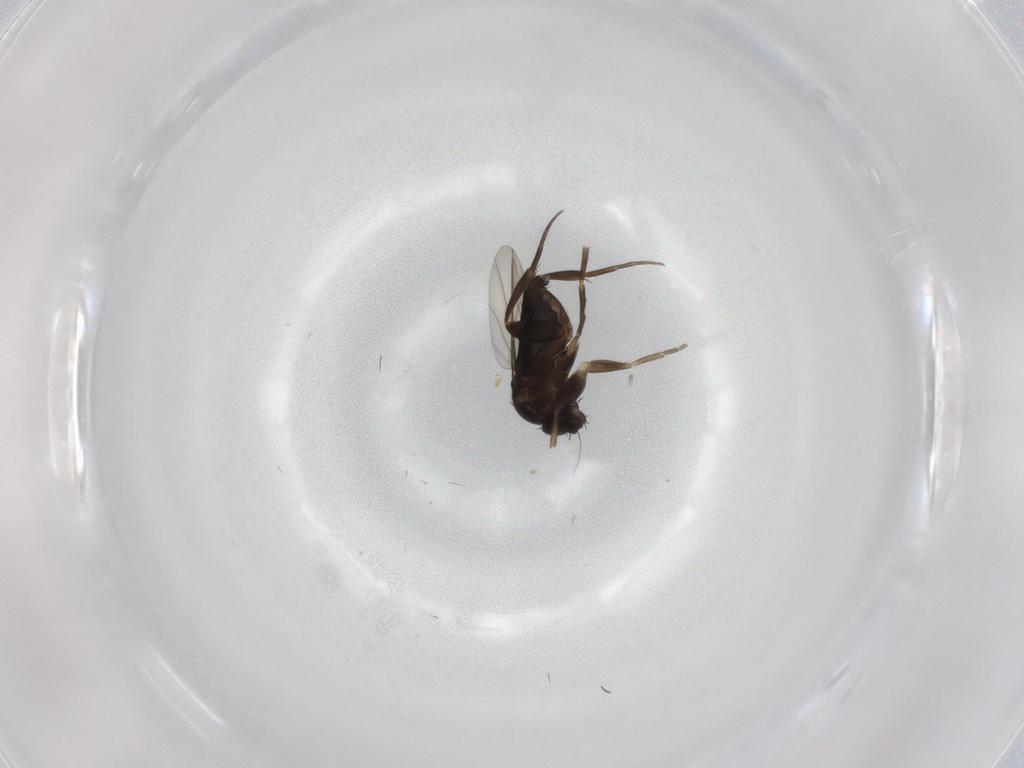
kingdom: Animalia
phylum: Arthropoda
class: Insecta
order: Diptera
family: Phoridae
